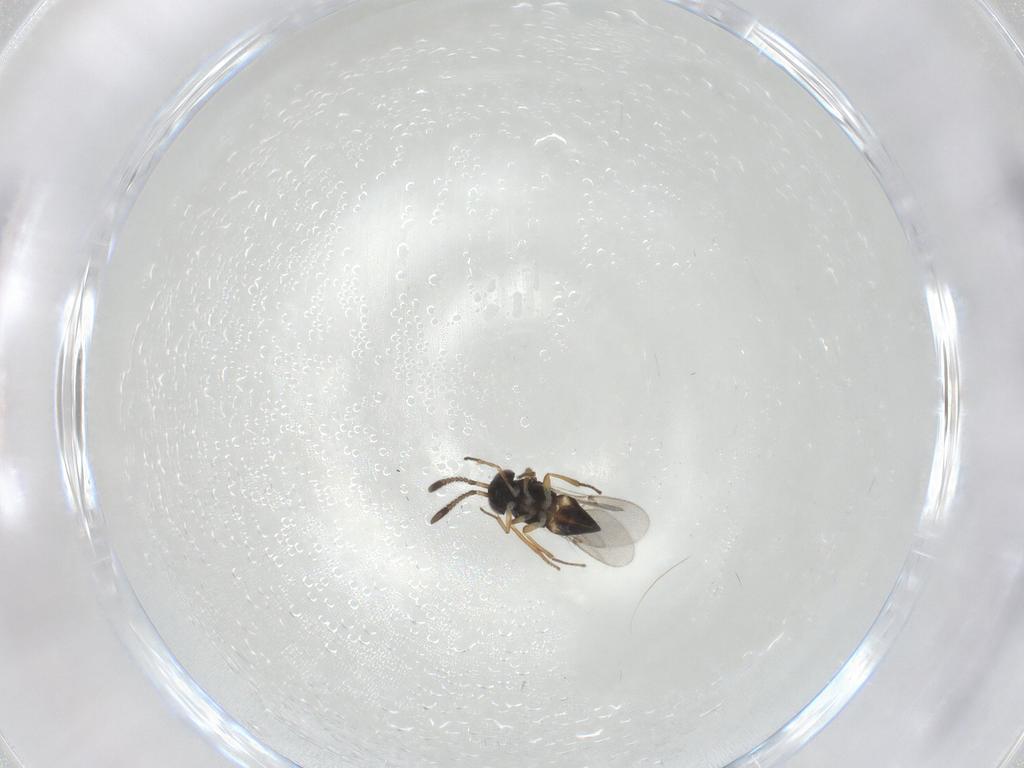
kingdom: Animalia
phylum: Arthropoda
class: Insecta
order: Hymenoptera
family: Encyrtidae
